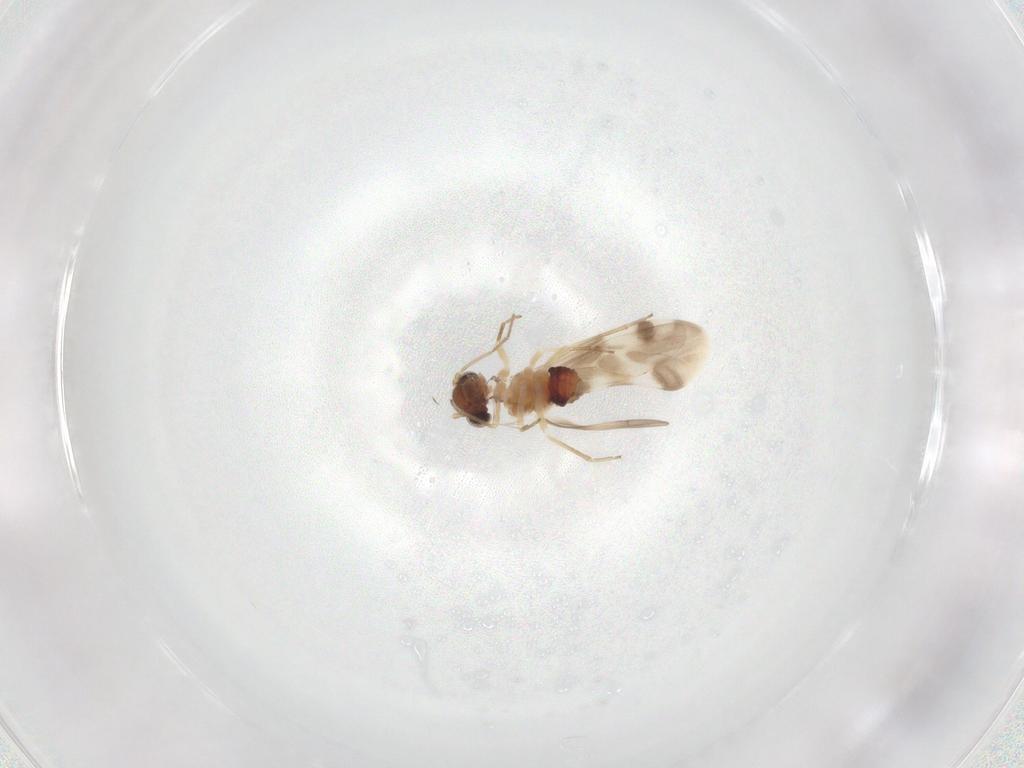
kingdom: Animalia
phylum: Arthropoda
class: Insecta
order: Psocodea
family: Caeciliusidae
